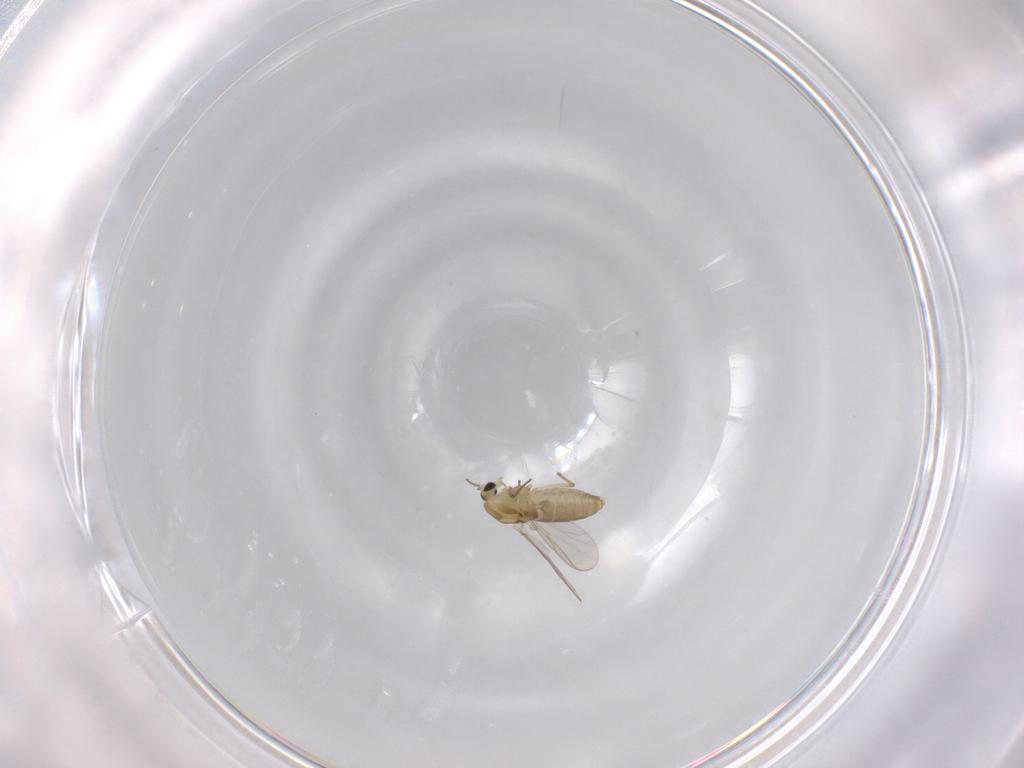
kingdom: Animalia
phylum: Arthropoda
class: Insecta
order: Diptera
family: Chironomidae
